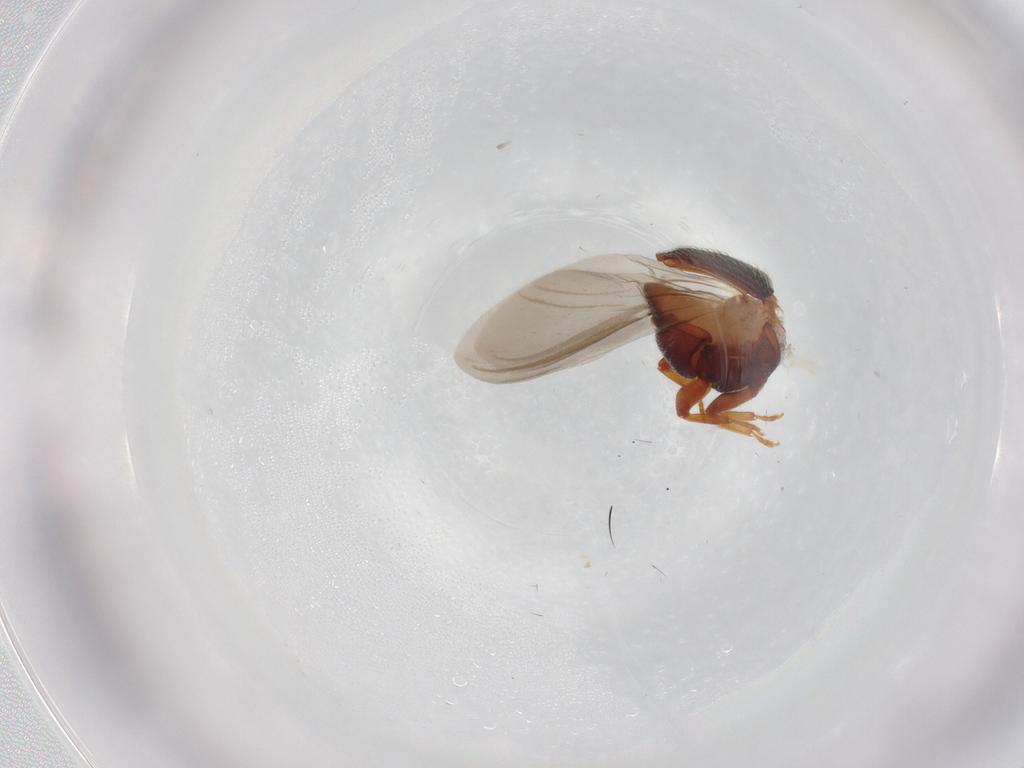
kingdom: Animalia
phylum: Arthropoda
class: Insecta
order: Coleoptera
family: Curculionidae
